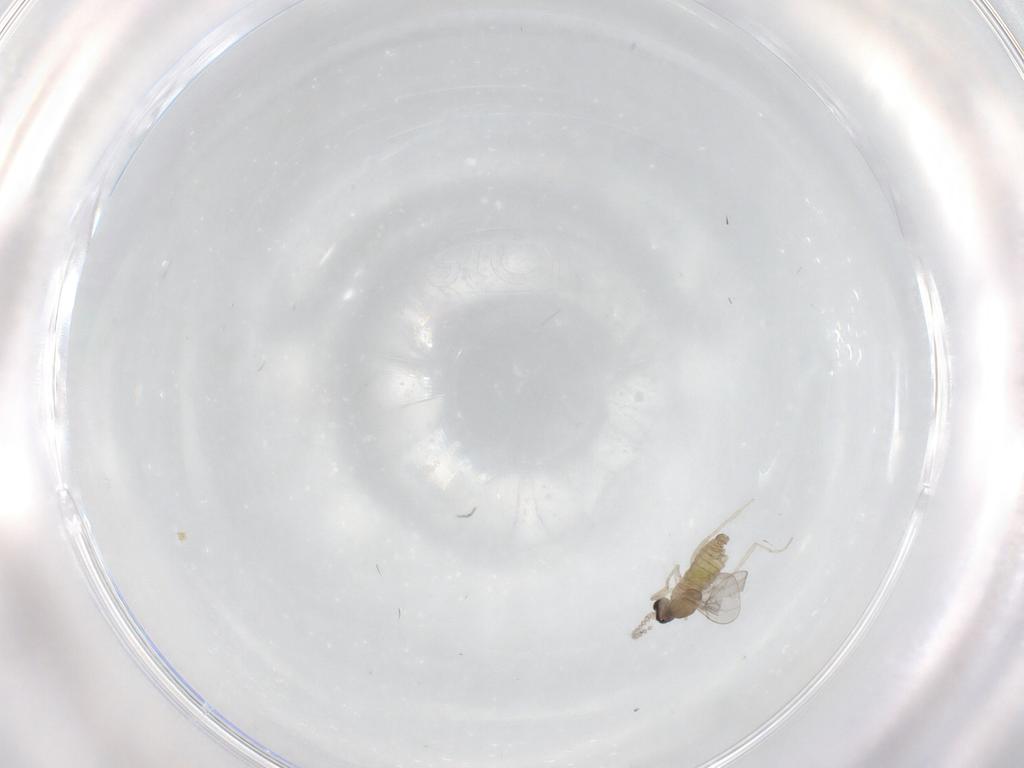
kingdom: Animalia
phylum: Arthropoda
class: Insecta
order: Diptera
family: Cecidomyiidae
